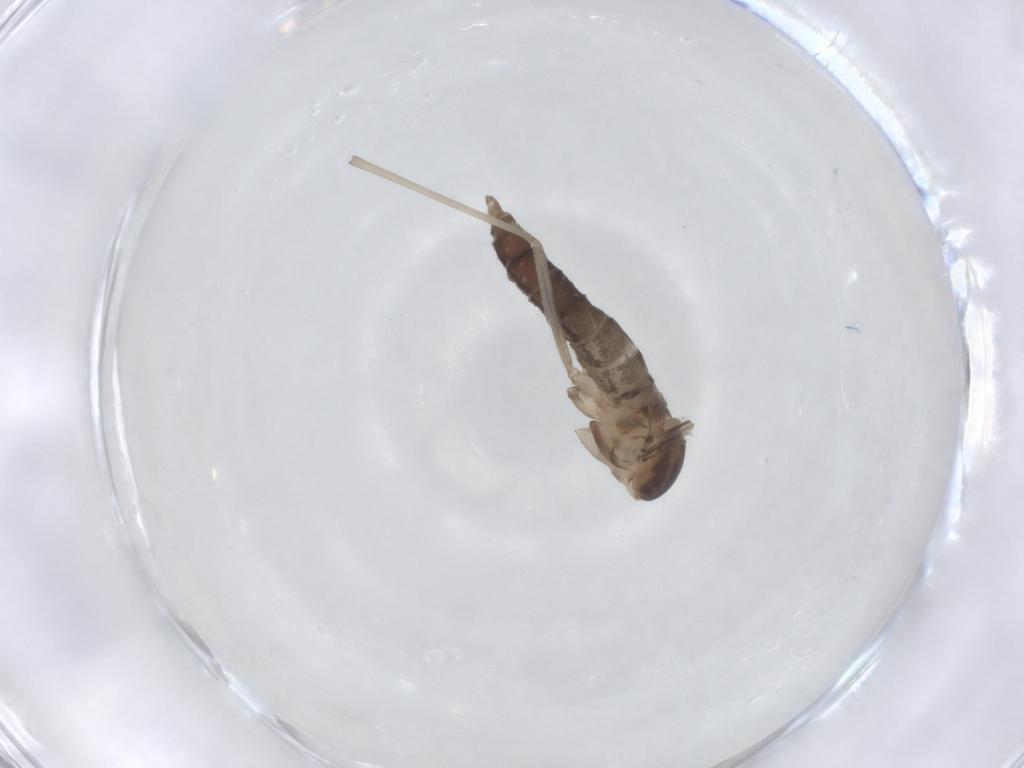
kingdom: Animalia
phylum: Arthropoda
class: Insecta
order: Diptera
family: Cecidomyiidae
